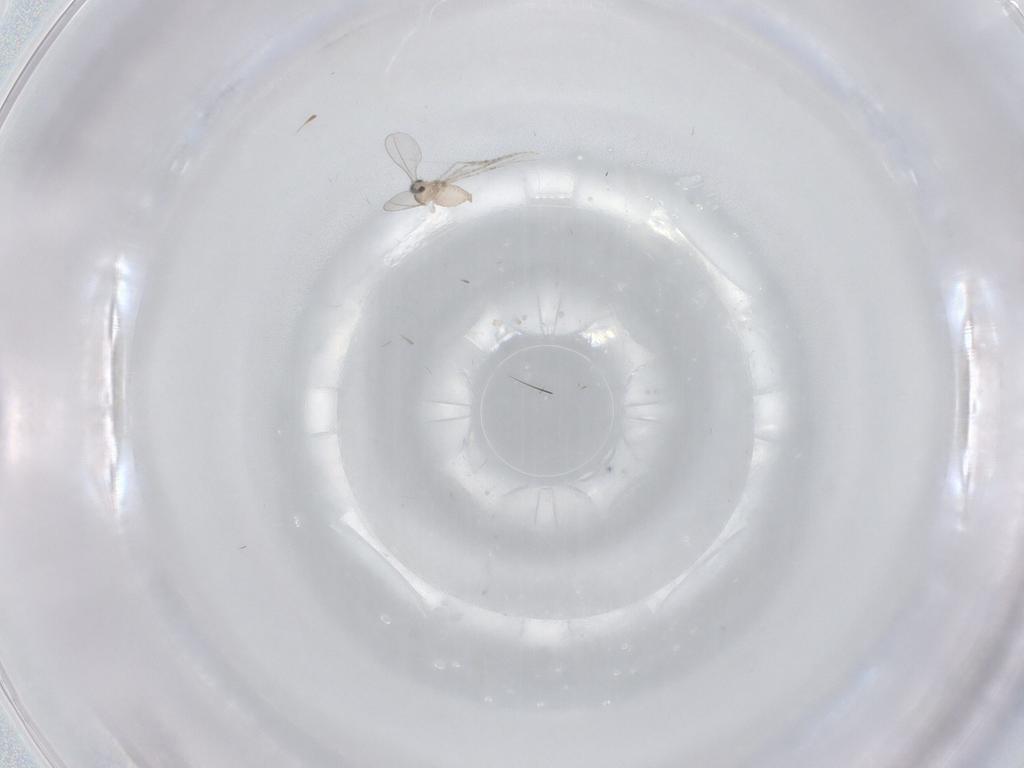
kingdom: Animalia
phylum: Arthropoda
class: Insecta
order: Diptera
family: Cecidomyiidae
